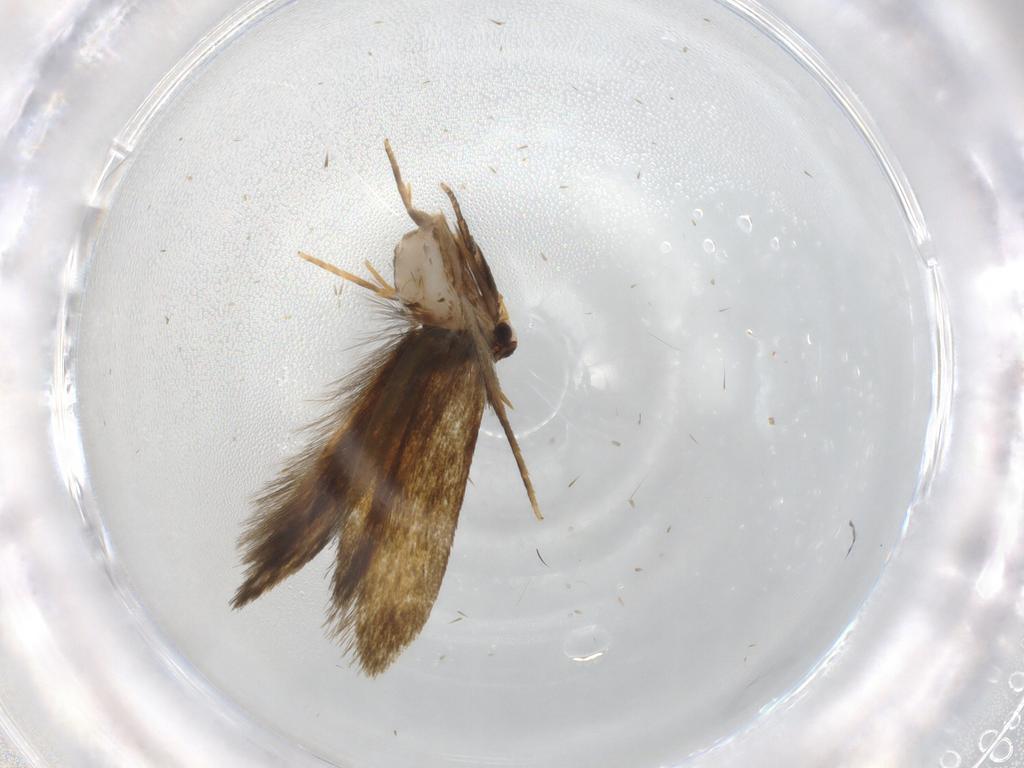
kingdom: Animalia
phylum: Arthropoda
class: Insecta
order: Lepidoptera
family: Tineidae
